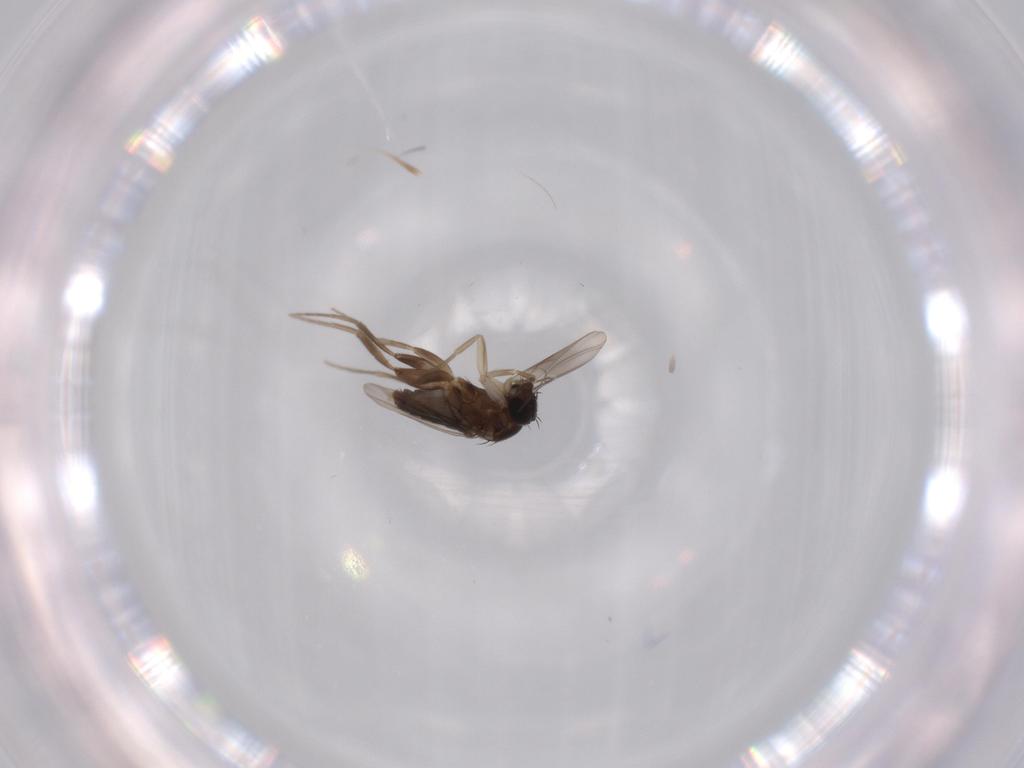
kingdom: Animalia
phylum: Arthropoda
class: Insecta
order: Diptera
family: Phoridae
